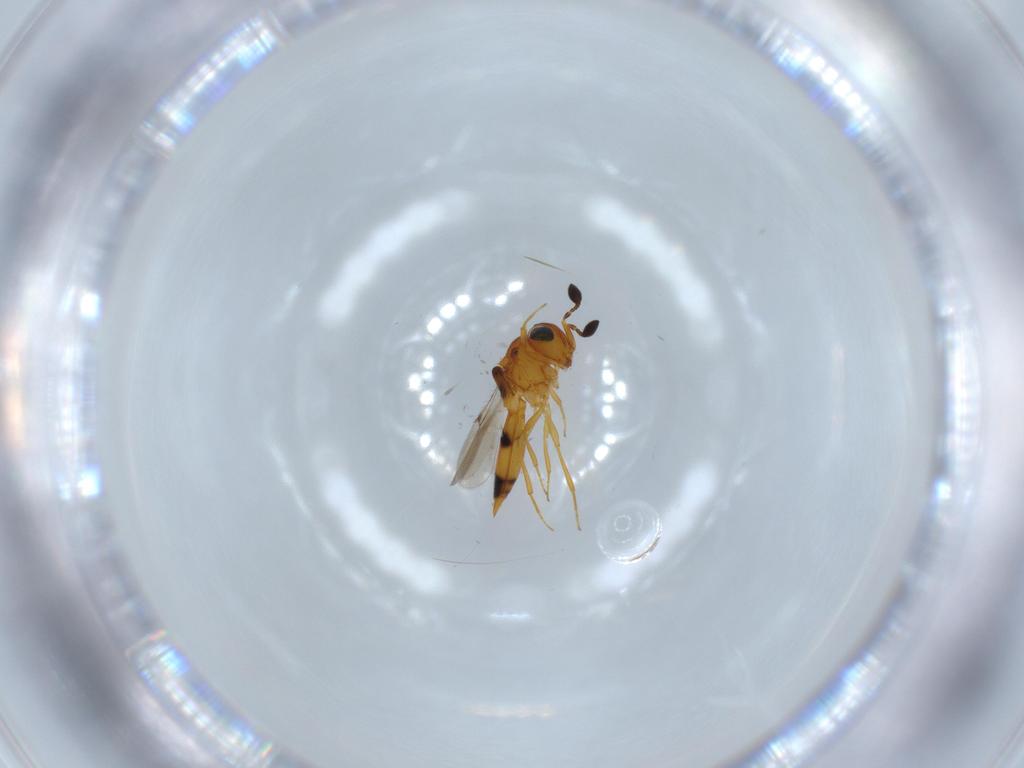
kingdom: Animalia
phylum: Arthropoda
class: Insecta
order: Hymenoptera
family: Scelionidae
